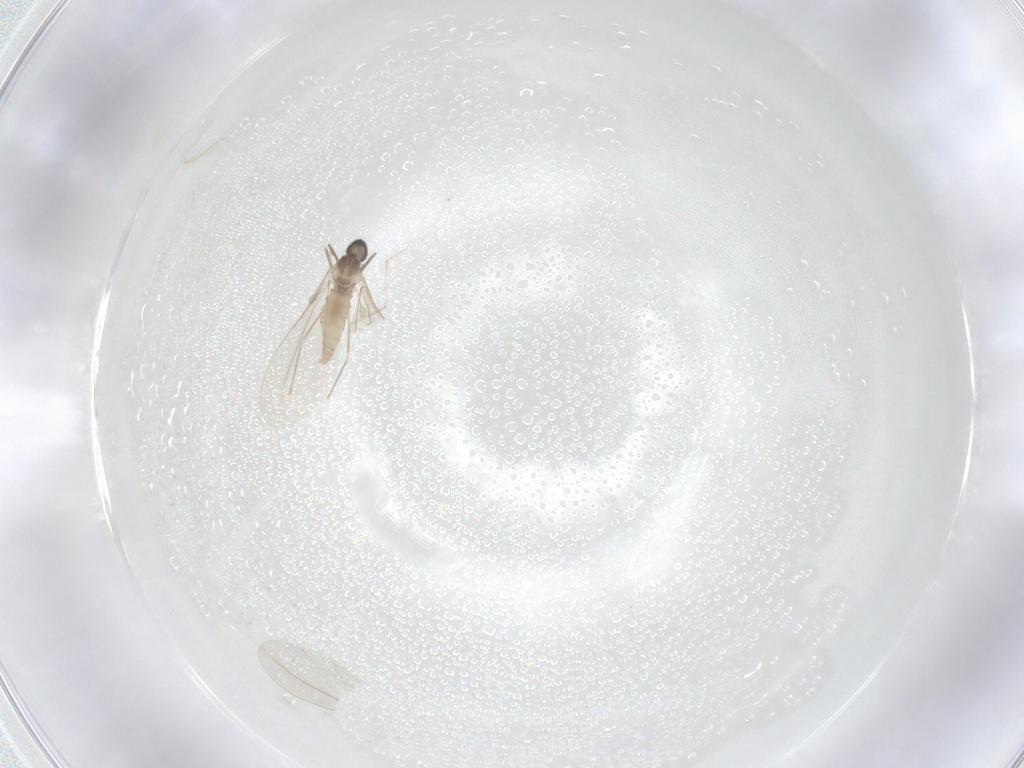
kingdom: Animalia
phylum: Arthropoda
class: Insecta
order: Diptera
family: Cecidomyiidae
